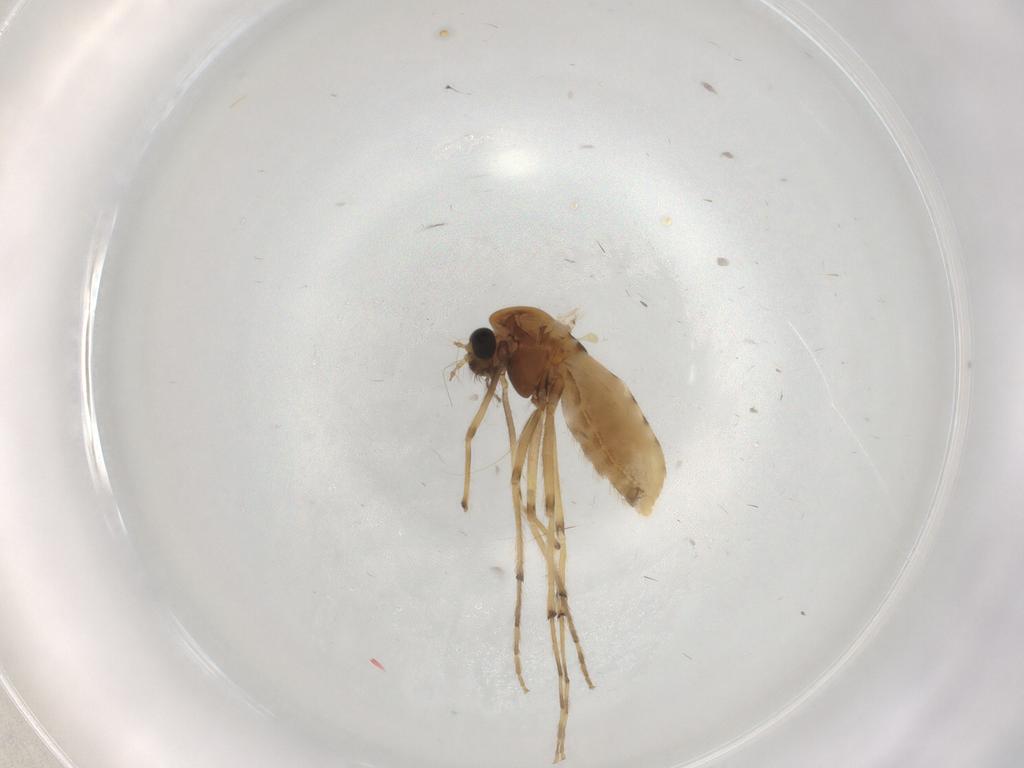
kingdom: Animalia
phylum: Arthropoda
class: Insecta
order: Diptera
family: Chironomidae
